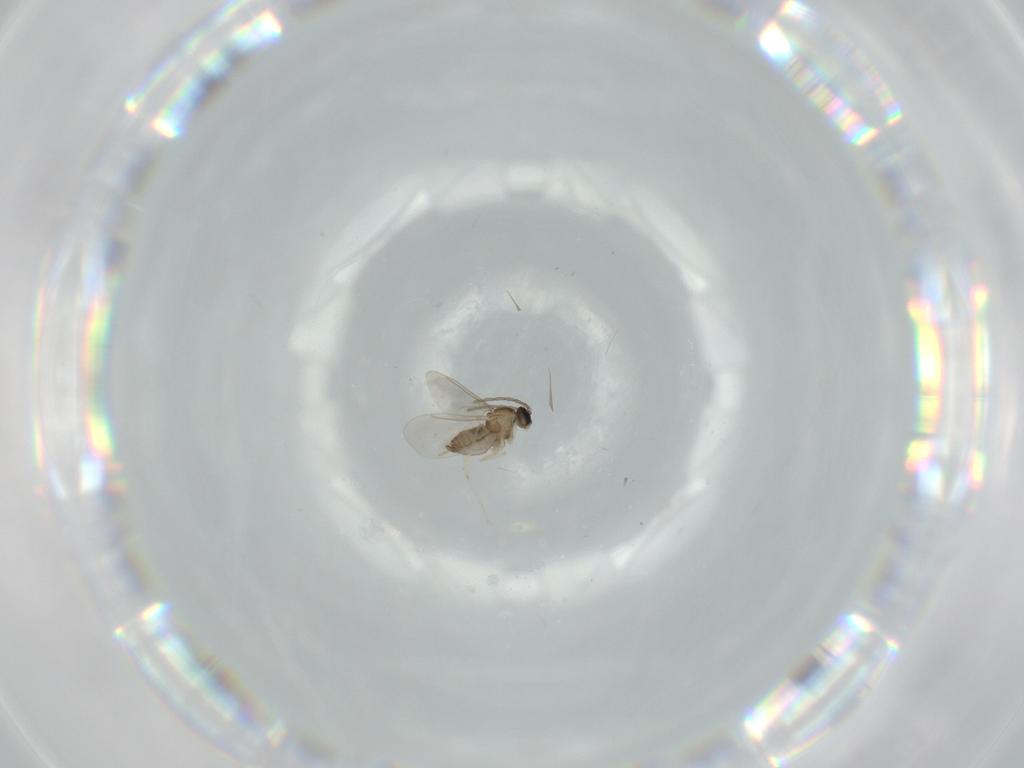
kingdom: Animalia
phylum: Arthropoda
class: Insecta
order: Diptera
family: Cecidomyiidae
